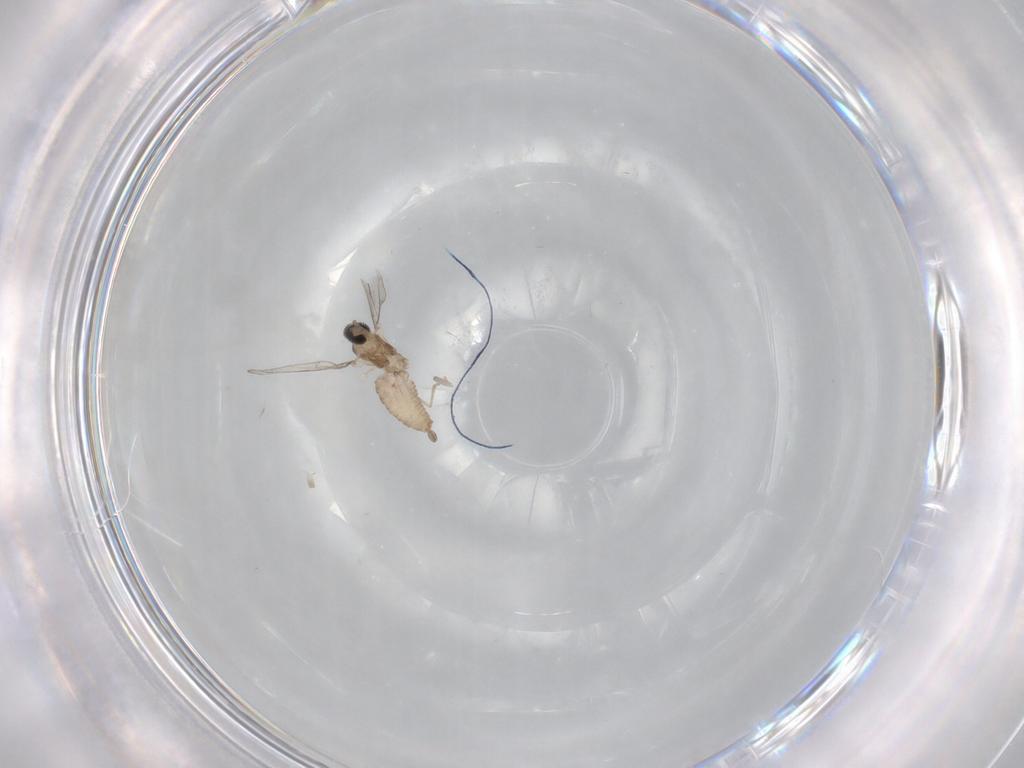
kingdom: Animalia
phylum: Arthropoda
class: Insecta
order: Diptera
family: Cecidomyiidae
